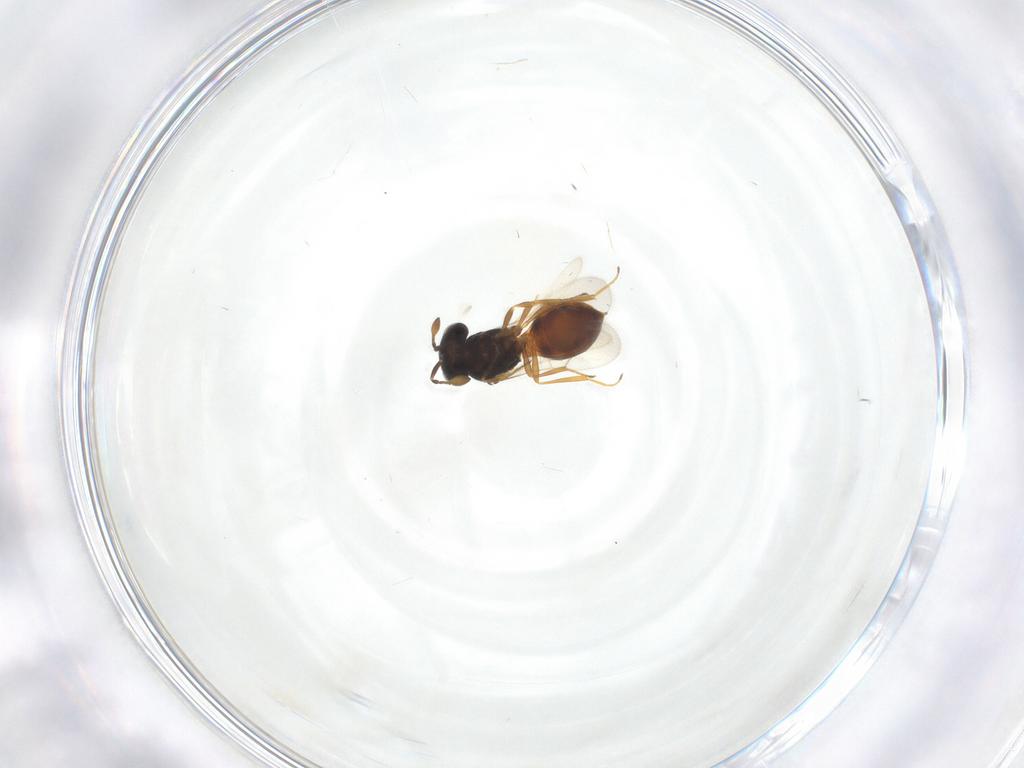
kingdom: Animalia
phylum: Arthropoda
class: Arachnida
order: Araneae
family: Pholcidae
